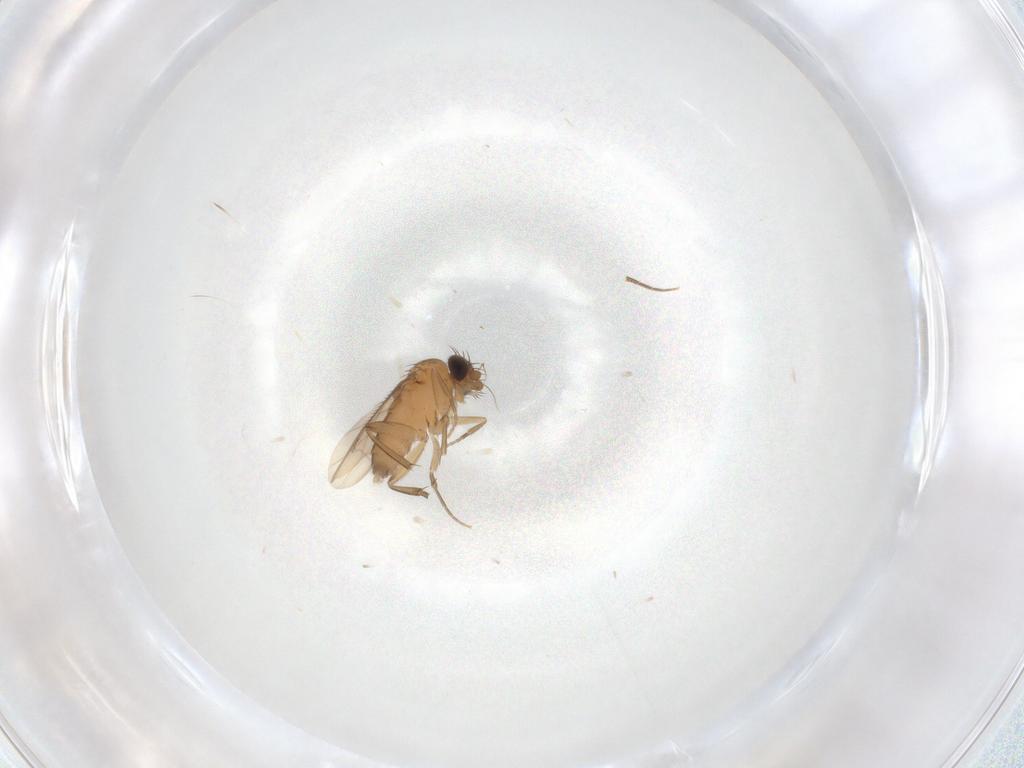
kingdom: Animalia
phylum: Arthropoda
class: Insecta
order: Diptera
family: Phoridae
